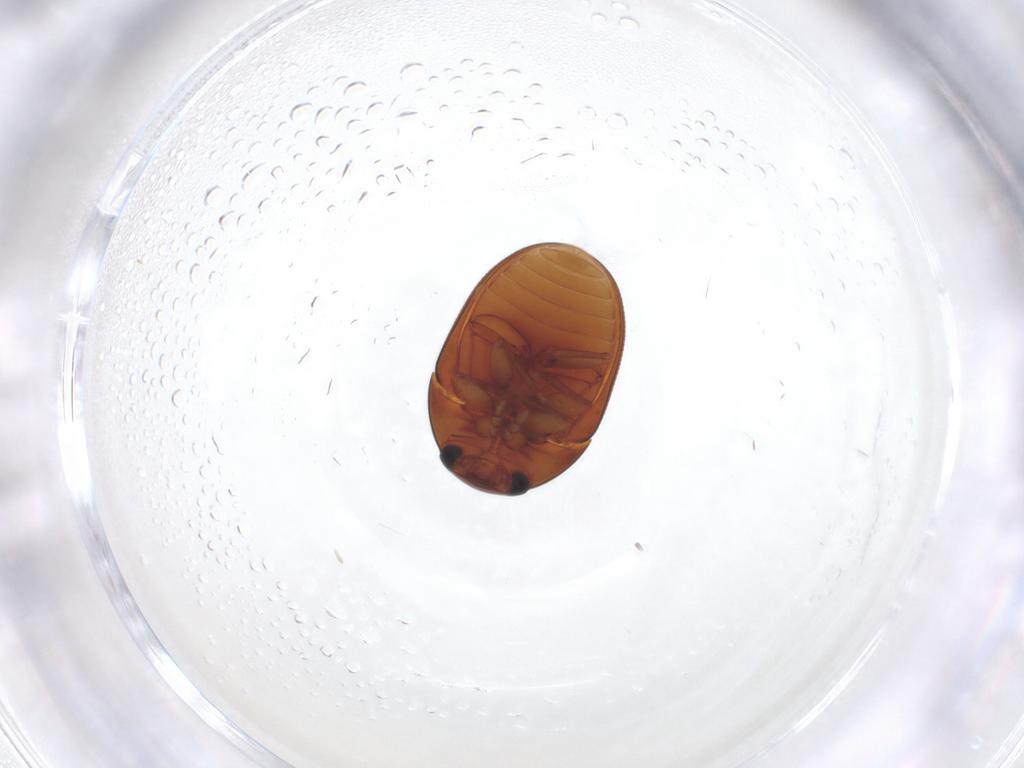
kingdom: Animalia
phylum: Arthropoda
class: Insecta
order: Coleoptera
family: Phalacridae
